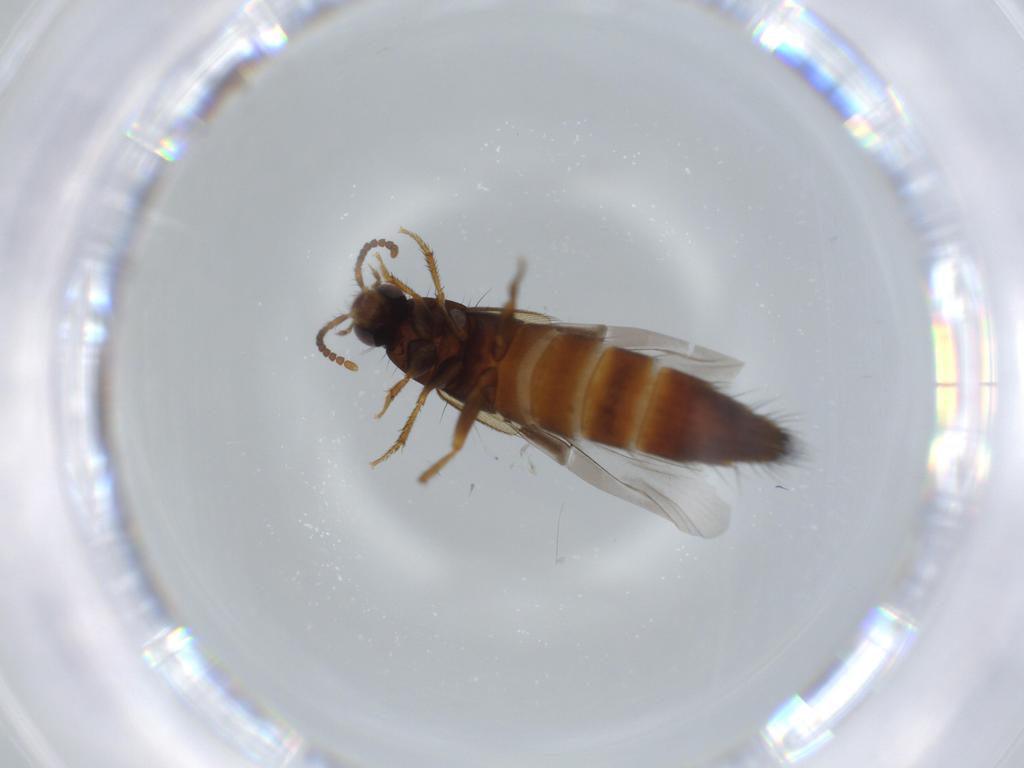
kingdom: Animalia
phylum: Arthropoda
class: Insecta
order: Coleoptera
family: Staphylinidae
